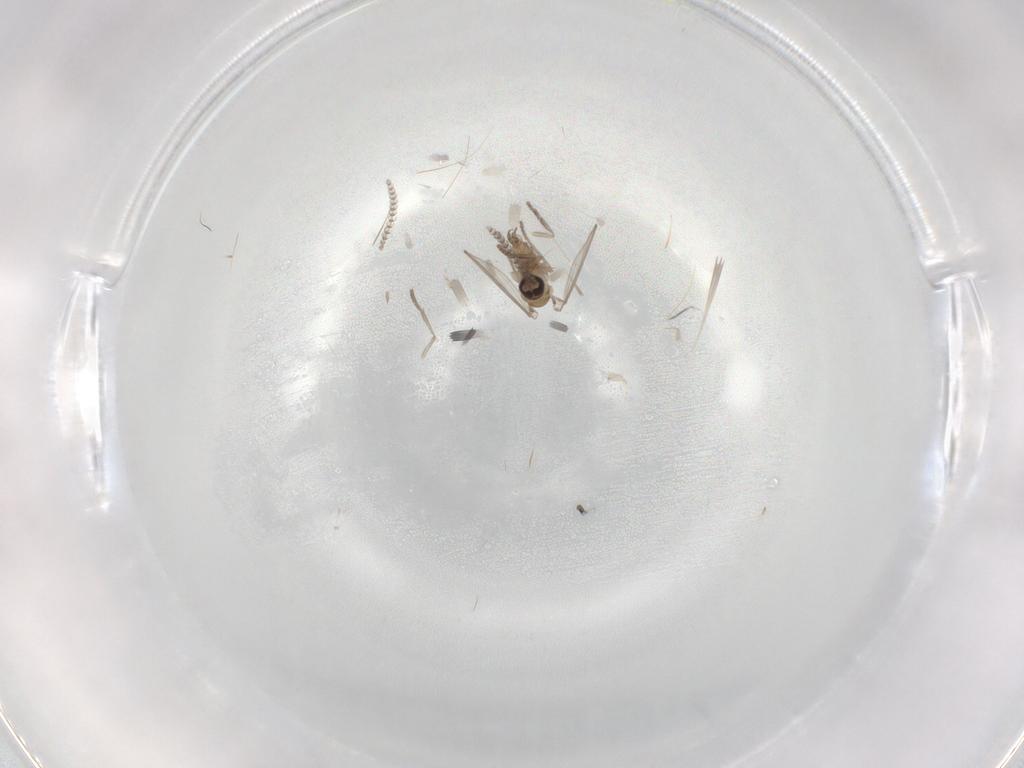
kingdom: Animalia
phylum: Arthropoda
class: Insecta
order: Diptera
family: Psychodidae
